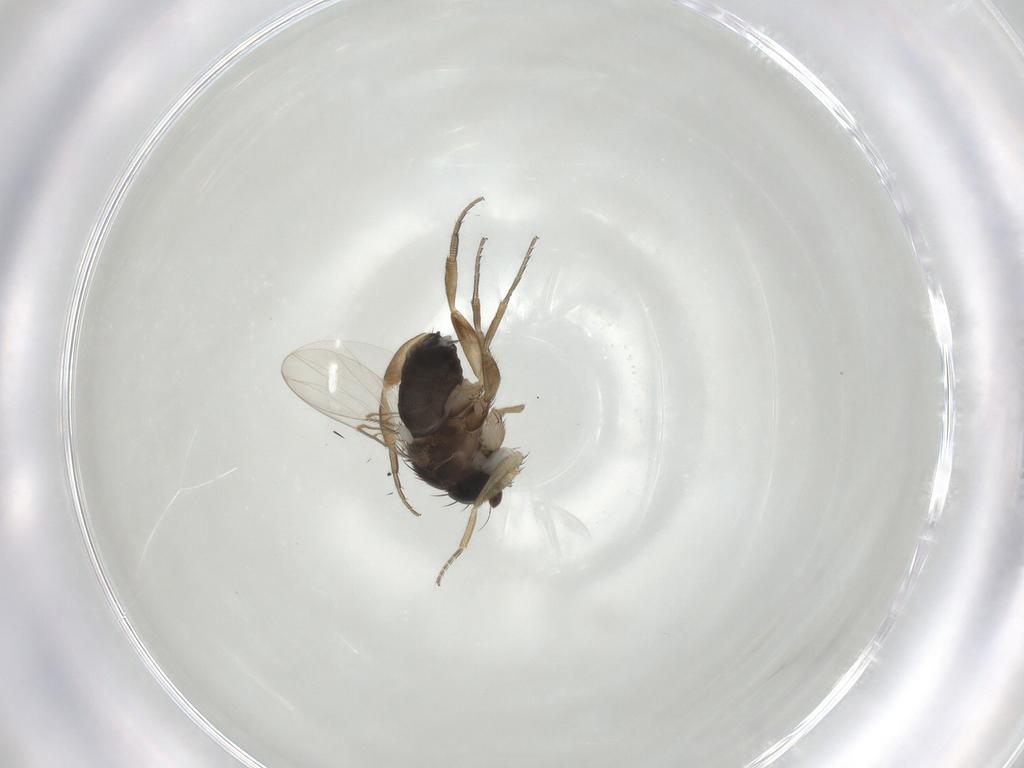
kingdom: Animalia
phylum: Arthropoda
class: Insecta
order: Diptera
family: Phoridae
